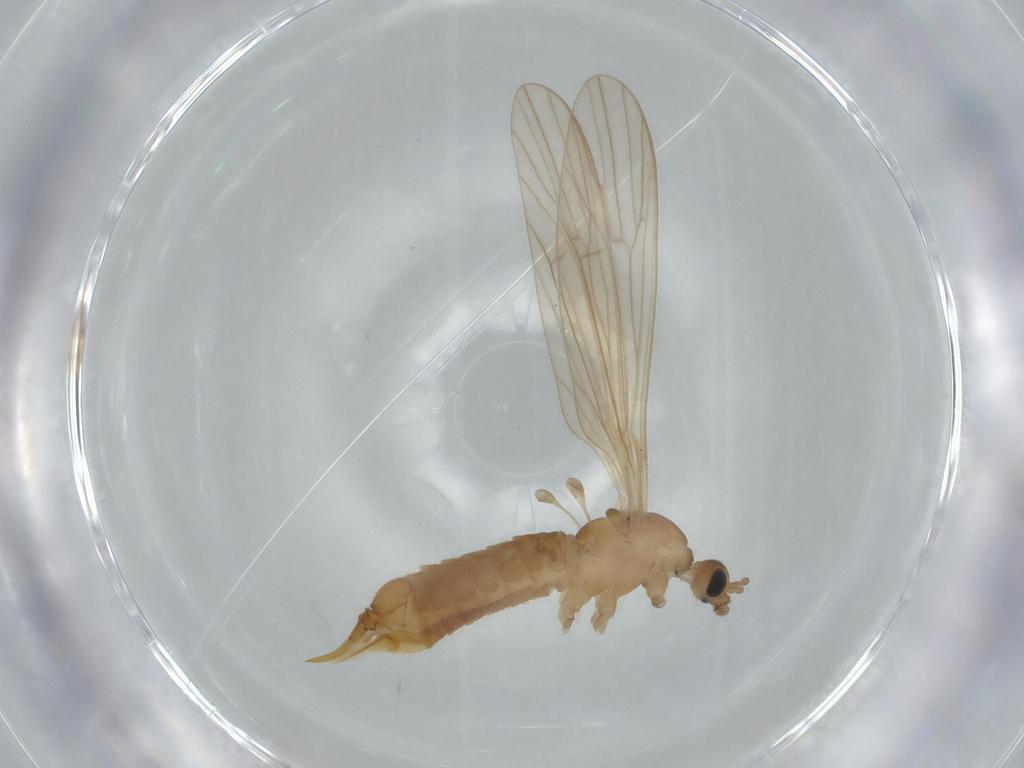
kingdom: Animalia
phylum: Arthropoda
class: Insecta
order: Diptera
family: Limoniidae
